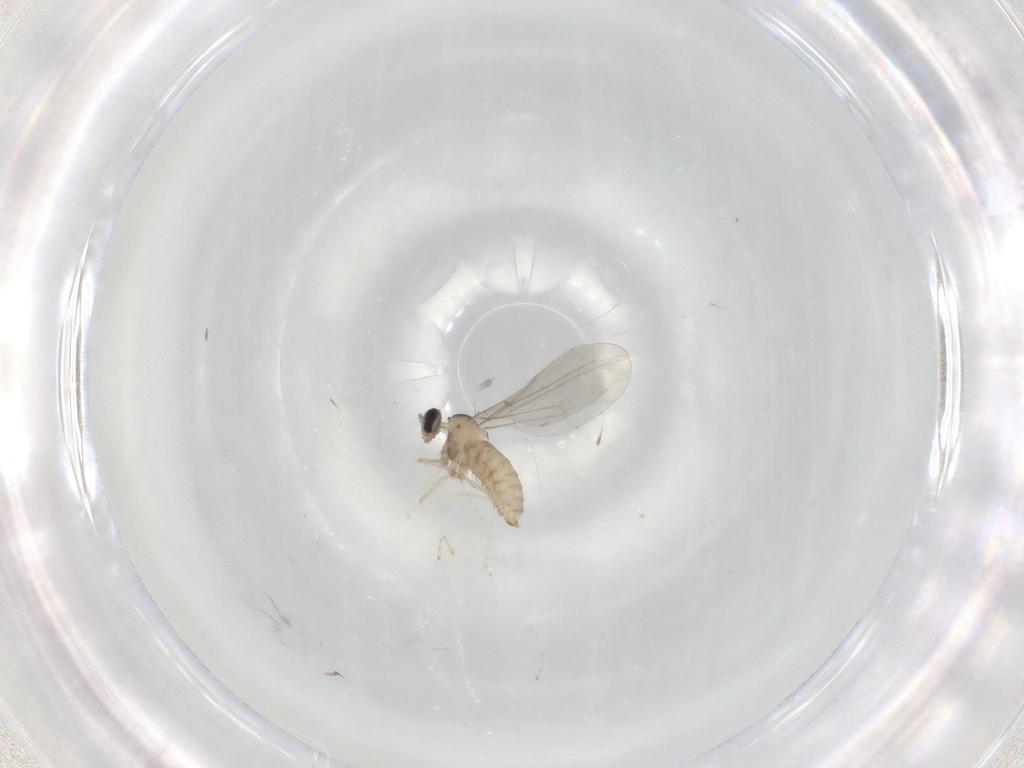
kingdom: Animalia
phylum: Arthropoda
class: Insecta
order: Diptera
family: Cecidomyiidae
